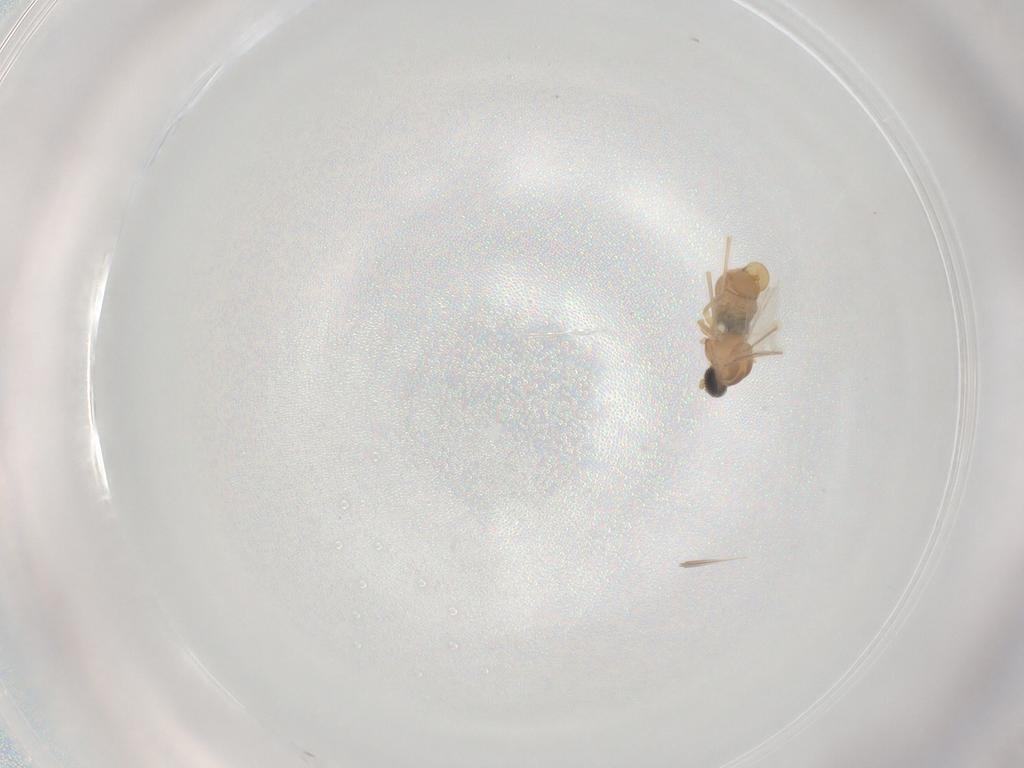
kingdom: Animalia
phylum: Arthropoda
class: Insecta
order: Diptera
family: Cecidomyiidae
